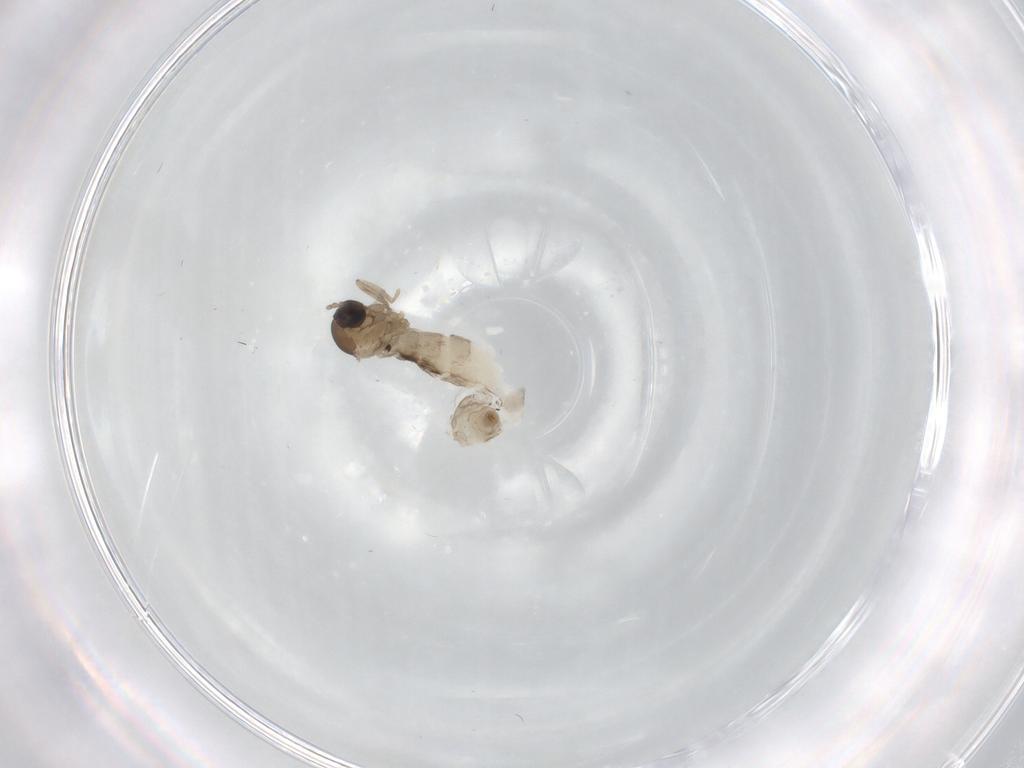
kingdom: Animalia
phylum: Arthropoda
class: Insecta
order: Diptera
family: Cecidomyiidae
